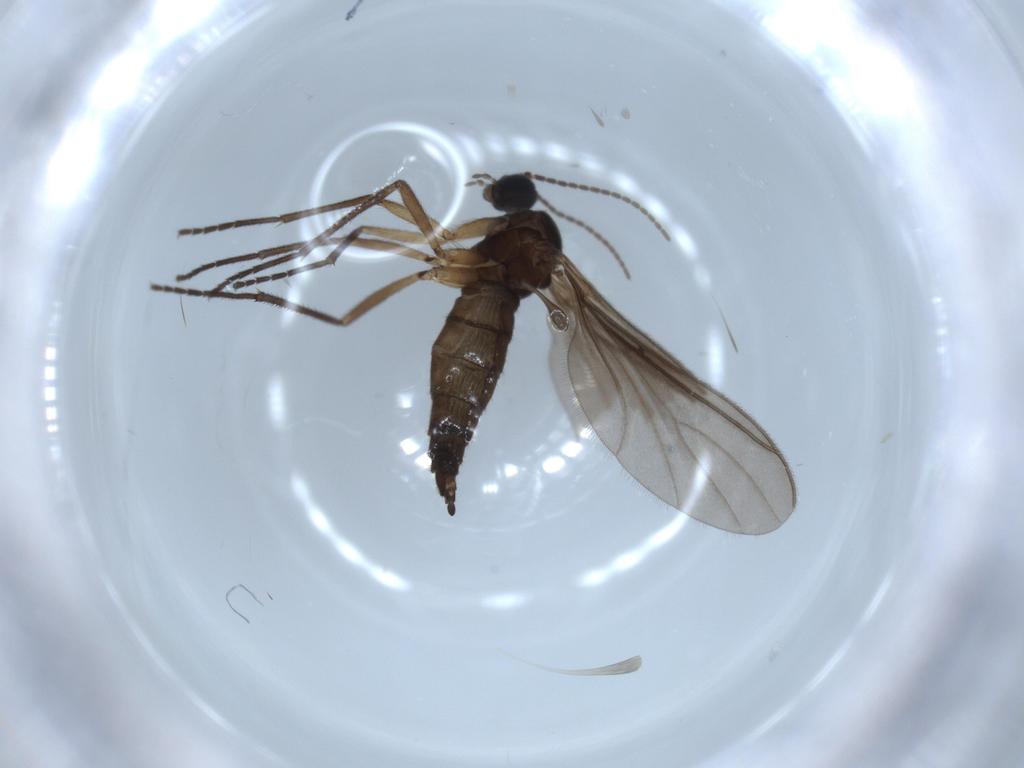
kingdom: Animalia
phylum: Arthropoda
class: Insecta
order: Diptera
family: Sciaridae
